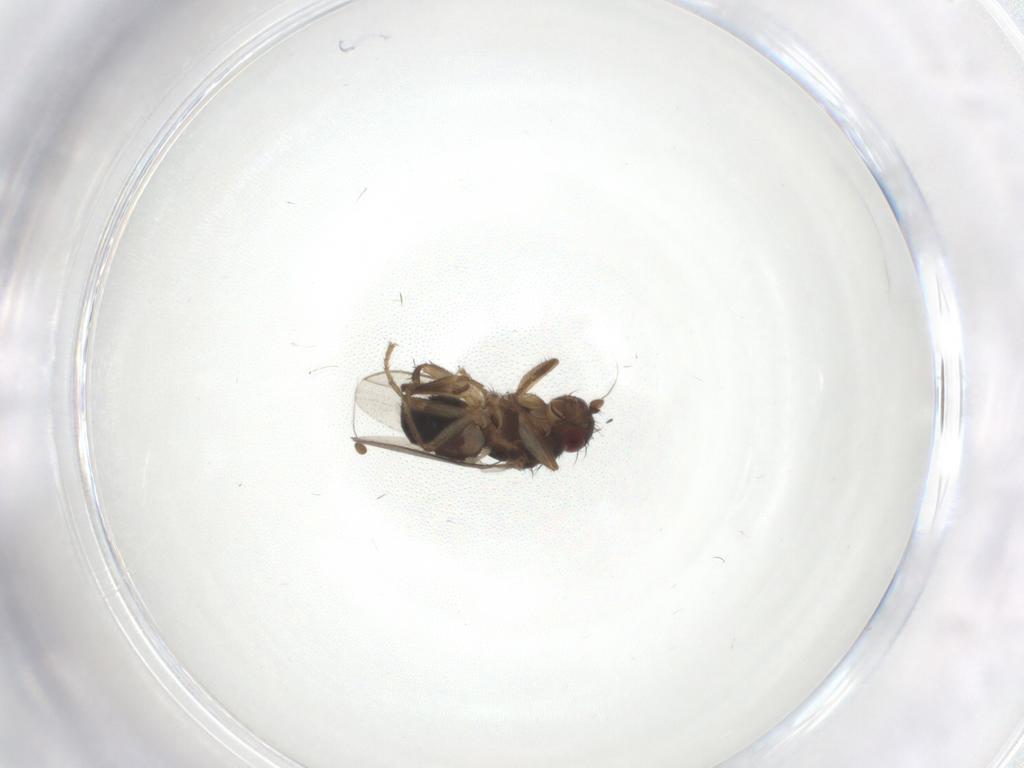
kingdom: Animalia
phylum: Arthropoda
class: Insecta
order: Diptera
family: Sphaeroceridae
